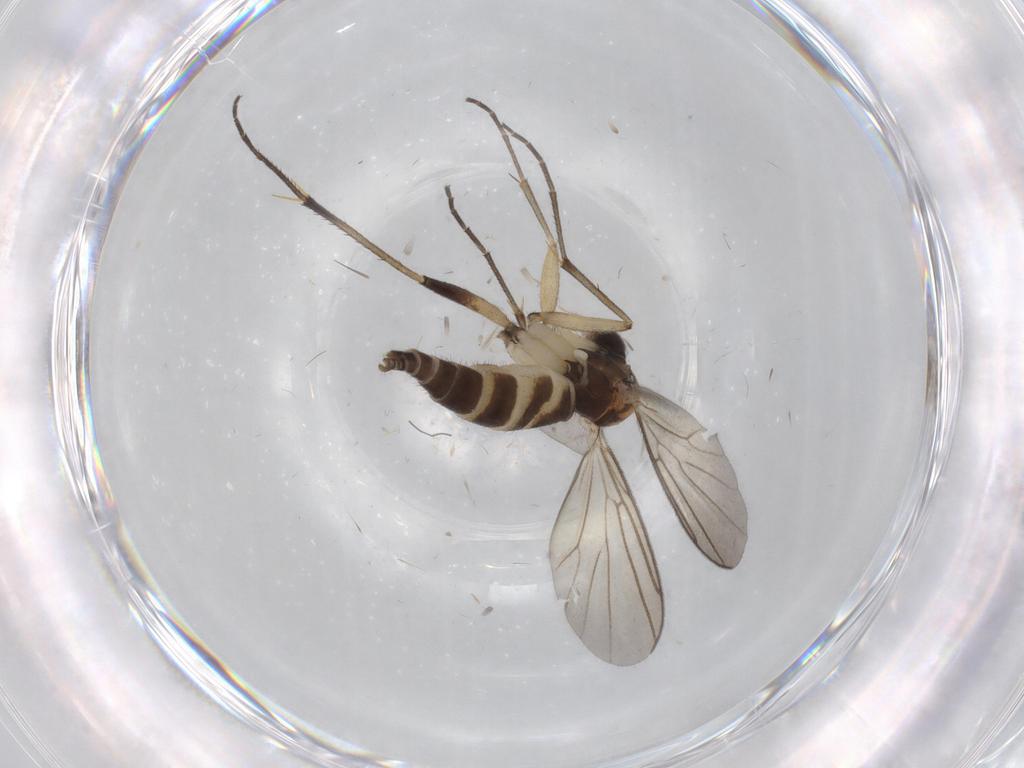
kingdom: Animalia
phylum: Arthropoda
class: Insecta
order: Diptera
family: Mycetophilidae
